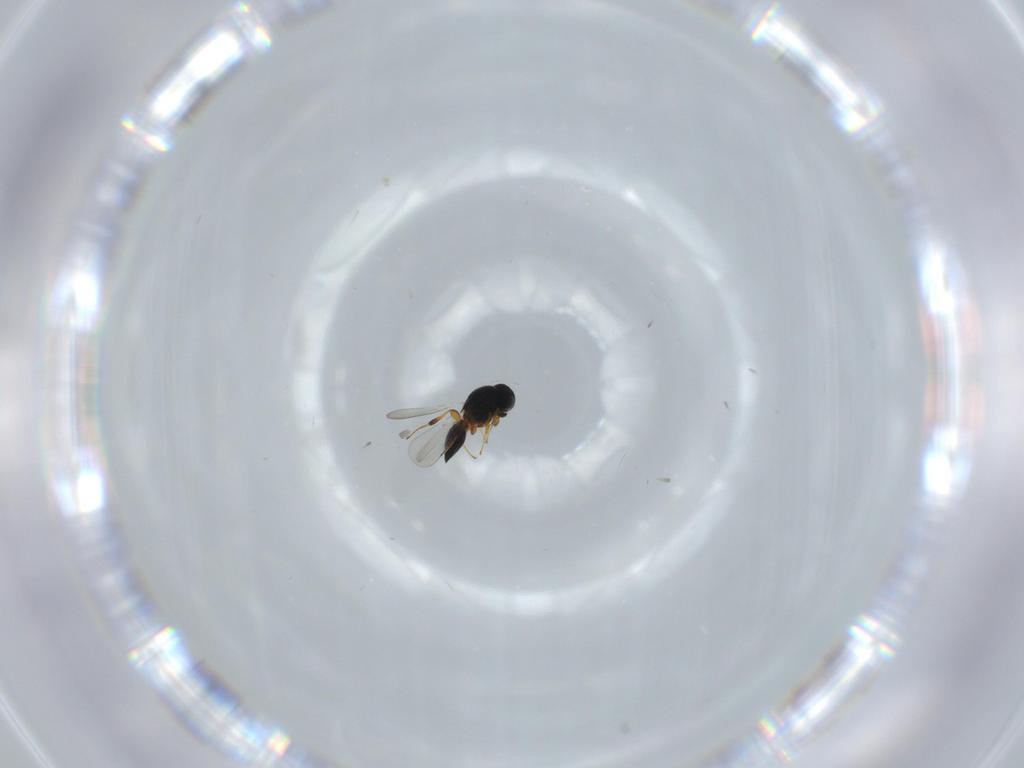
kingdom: Animalia
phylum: Arthropoda
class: Insecta
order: Hymenoptera
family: Platygastridae
